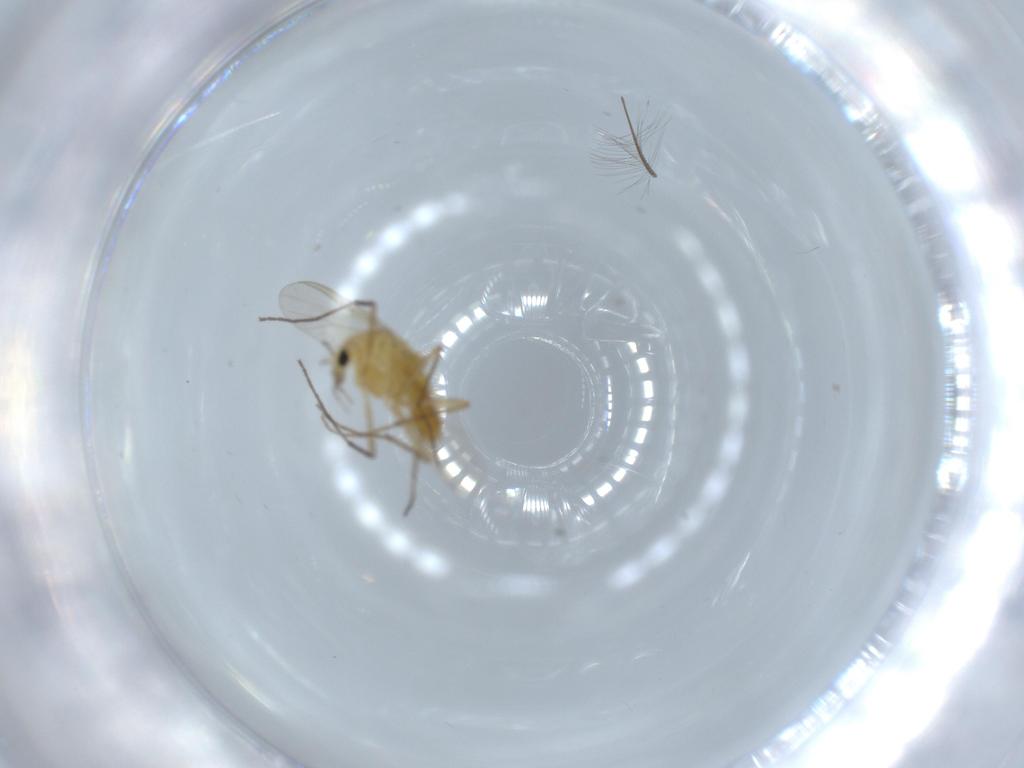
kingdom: Animalia
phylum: Arthropoda
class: Insecta
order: Diptera
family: Chironomidae
